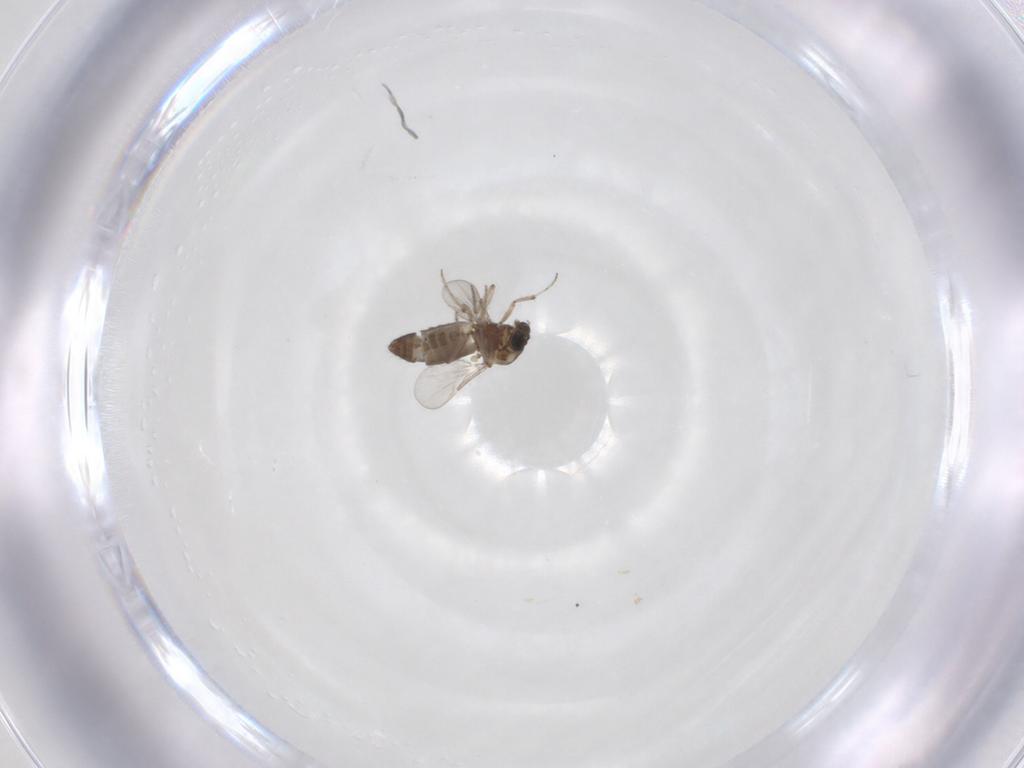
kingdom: Animalia
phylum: Arthropoda
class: Insecta
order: Diptera
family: Ceratopogonidae
